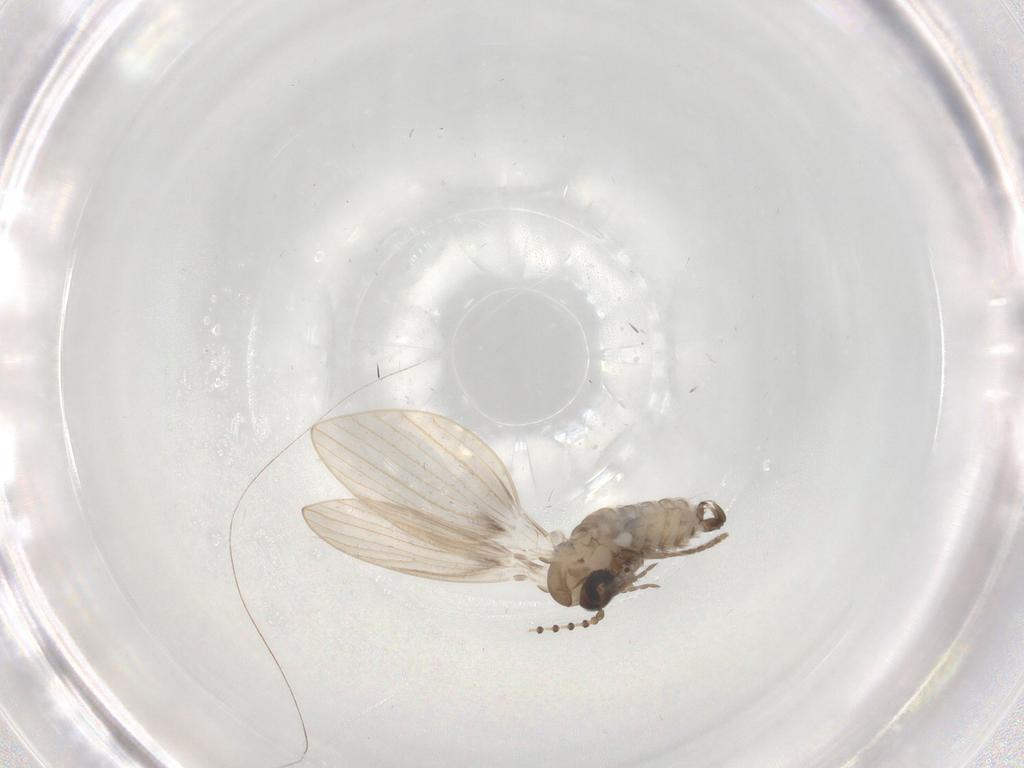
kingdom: Animalia
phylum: Arthropoda
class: Insecta
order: Diptera
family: Psychodidae
